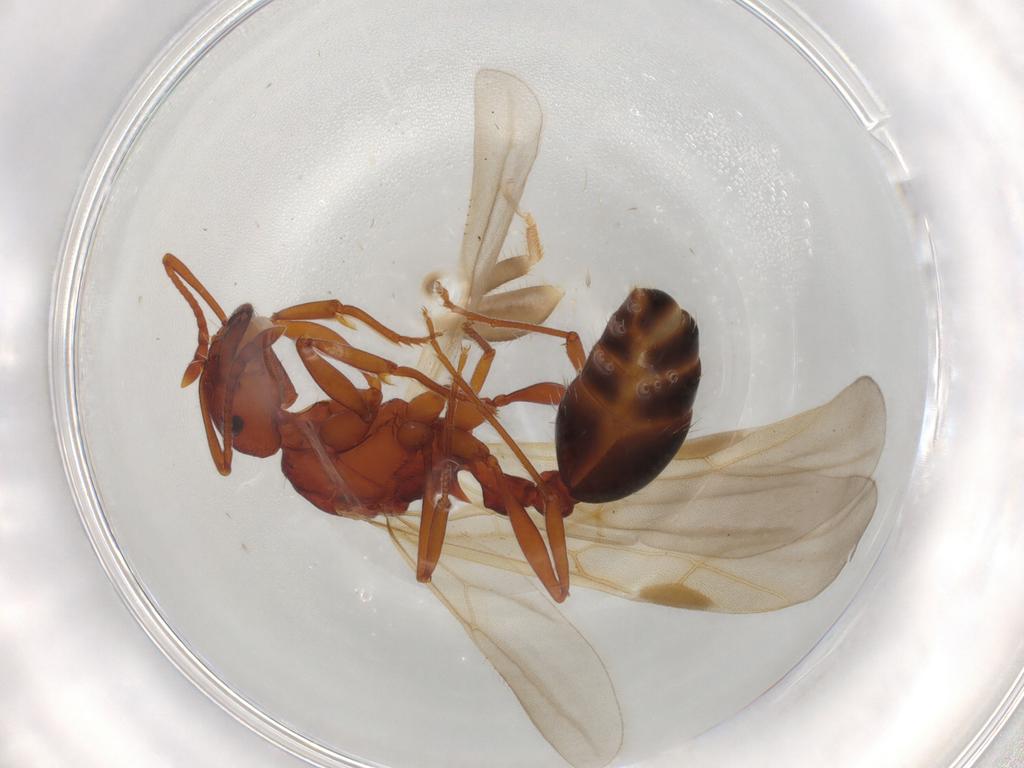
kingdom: Animalia
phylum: Arthropoda
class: Insecta
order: Hymenoptera
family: Formicidae
